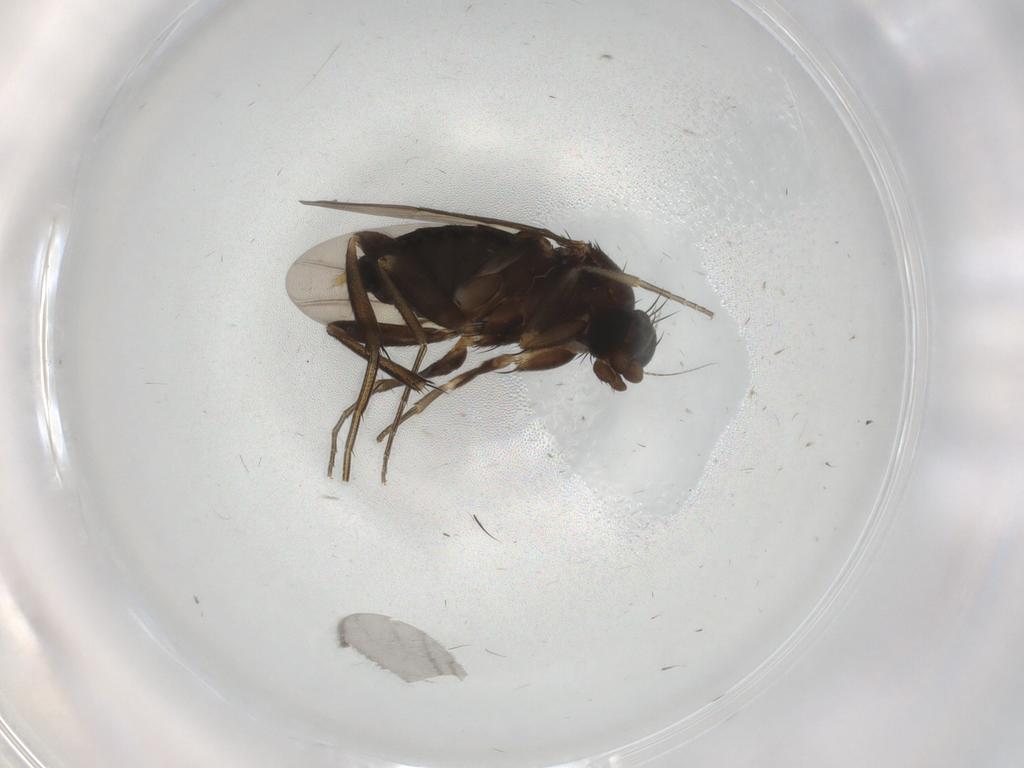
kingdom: Animalia
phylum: Arthropoda
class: Insecta
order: Diptera
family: Phoridae
